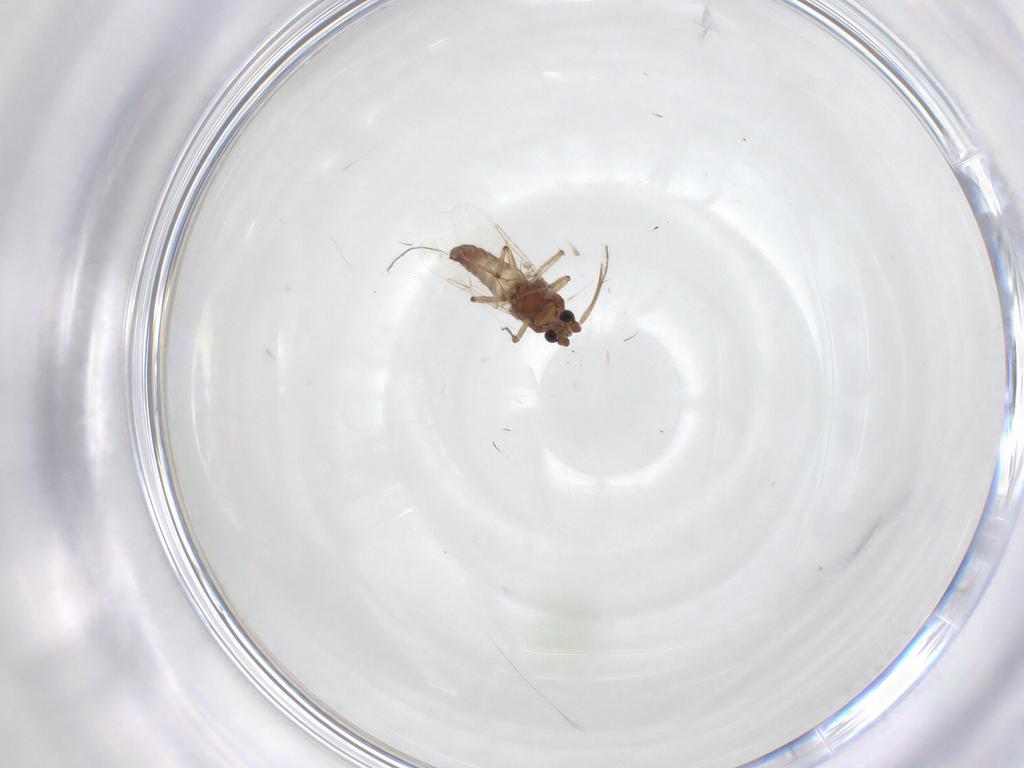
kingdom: Animalia
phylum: Arthropoda
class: Insecta
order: Diptera
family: Ceratopogonidae
